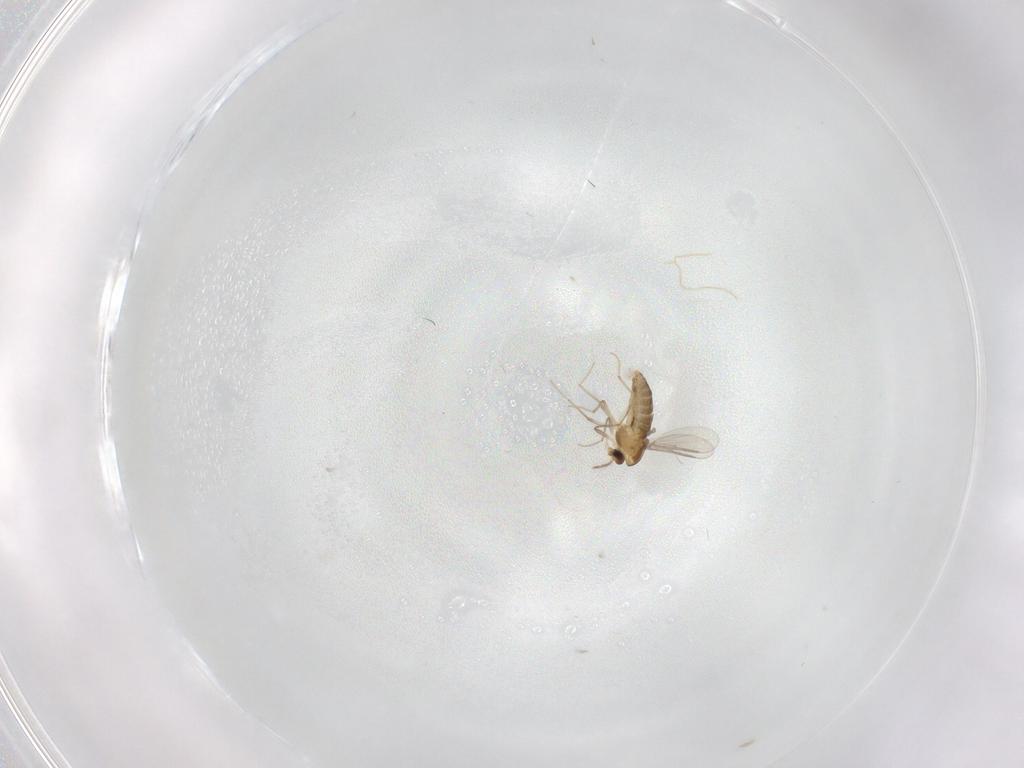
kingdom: Animalia
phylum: Arthropoda
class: Insecta
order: Diptera
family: Tabanidae
